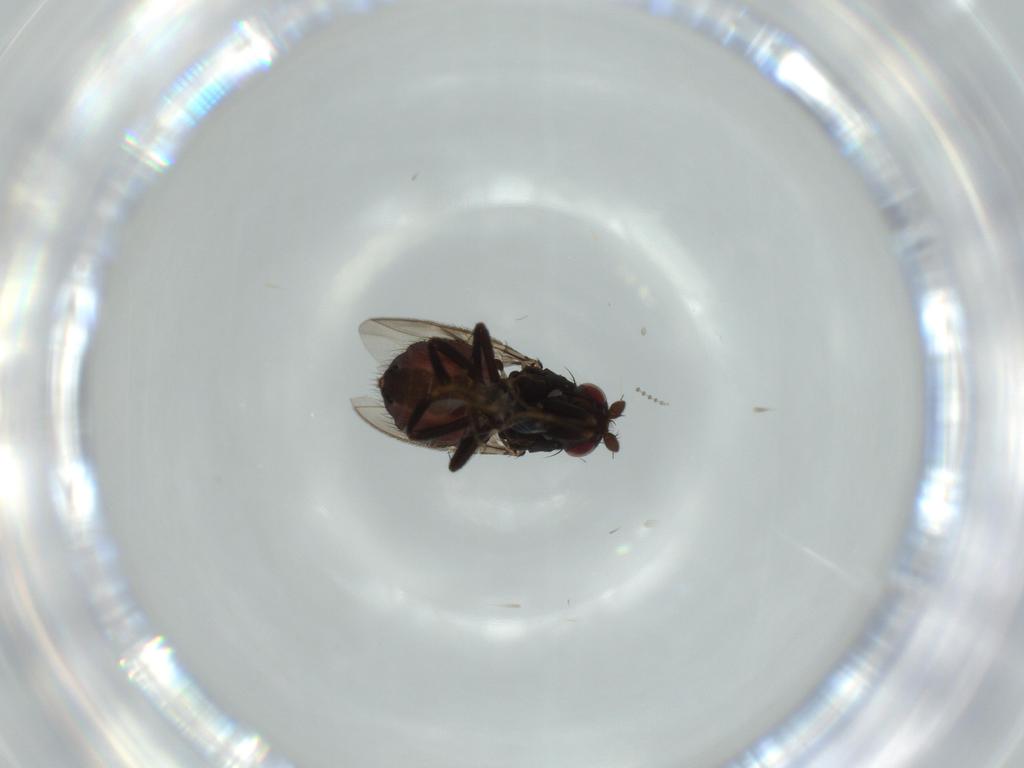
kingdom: Animalia
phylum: Arthropoda
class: Insecta
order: Diptera
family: Sphaeroceridae
